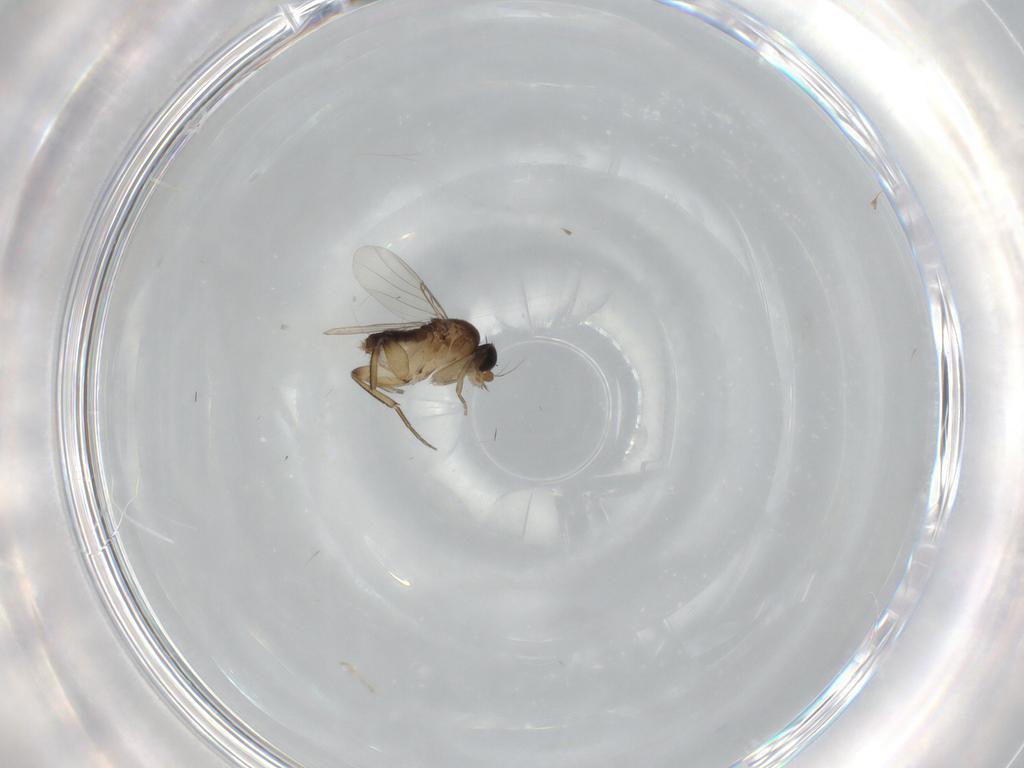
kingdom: Animalia
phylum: Arthropoda
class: Insecta
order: Diptera
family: Phoridae
